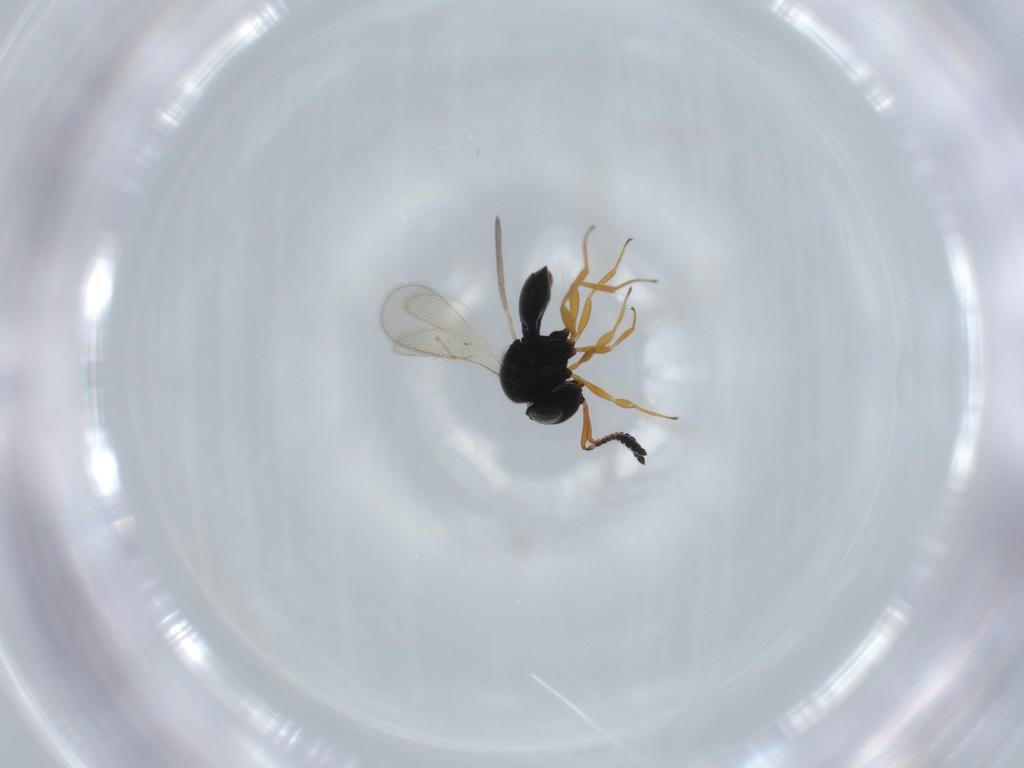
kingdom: Animalia
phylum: Arthropoda
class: Insecta
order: Hymenoptera
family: Scelionidae
